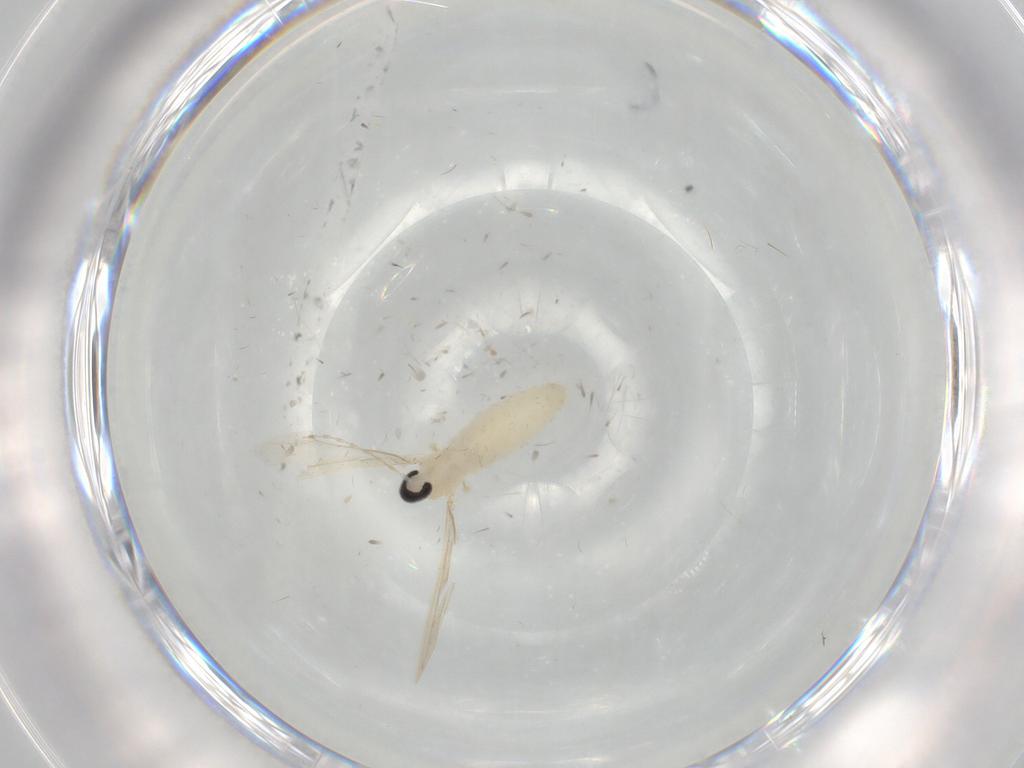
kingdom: Animalia
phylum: Arthropoda
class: Insecta
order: Diptera
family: Cecidomyiidae
